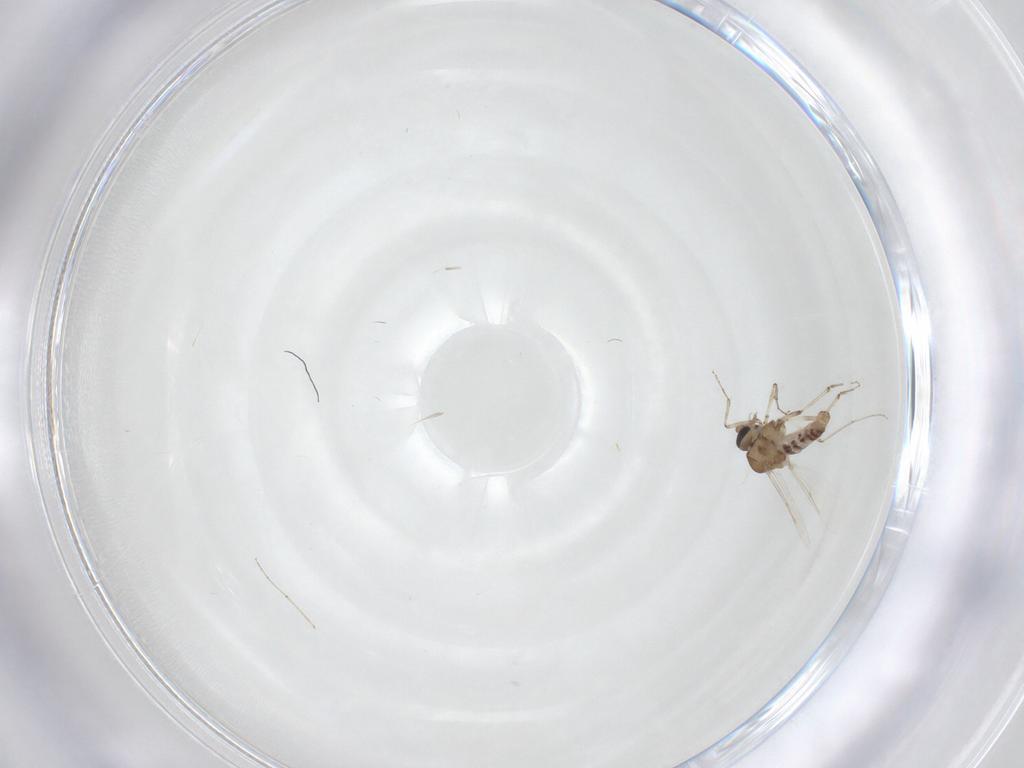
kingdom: Animalia
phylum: Arthropoda
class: Insecta
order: Diptera
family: Ceratopogonidae
